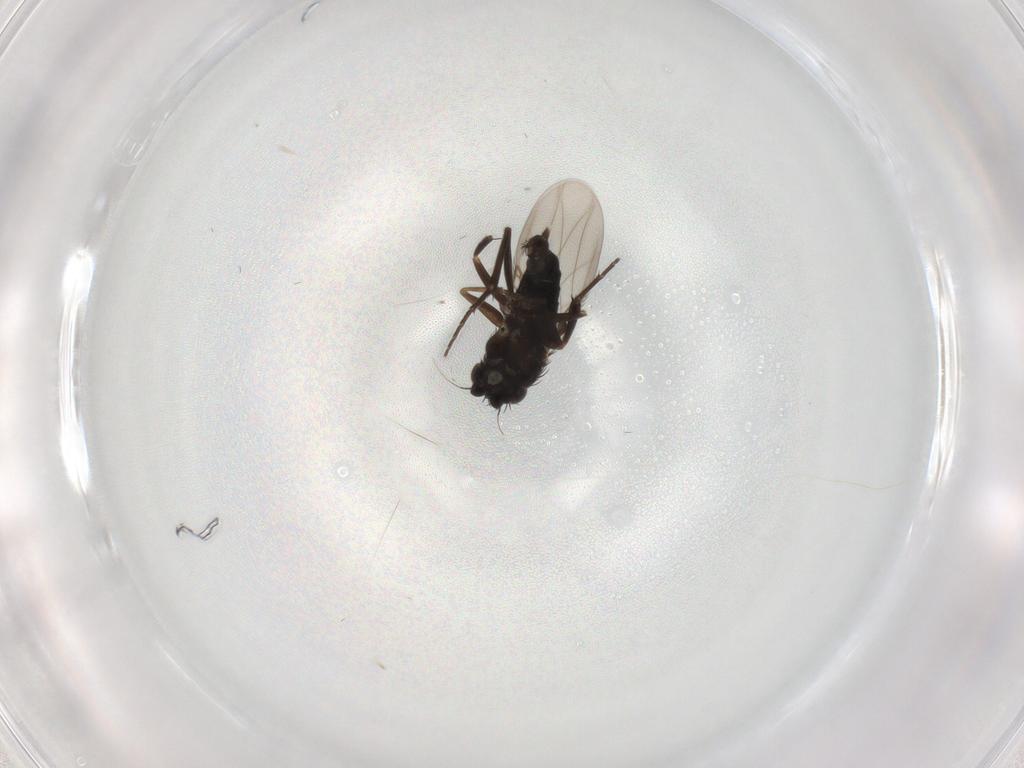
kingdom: Animalia
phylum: Arthropoda
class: Insecta
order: Diptera
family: Phoridae
